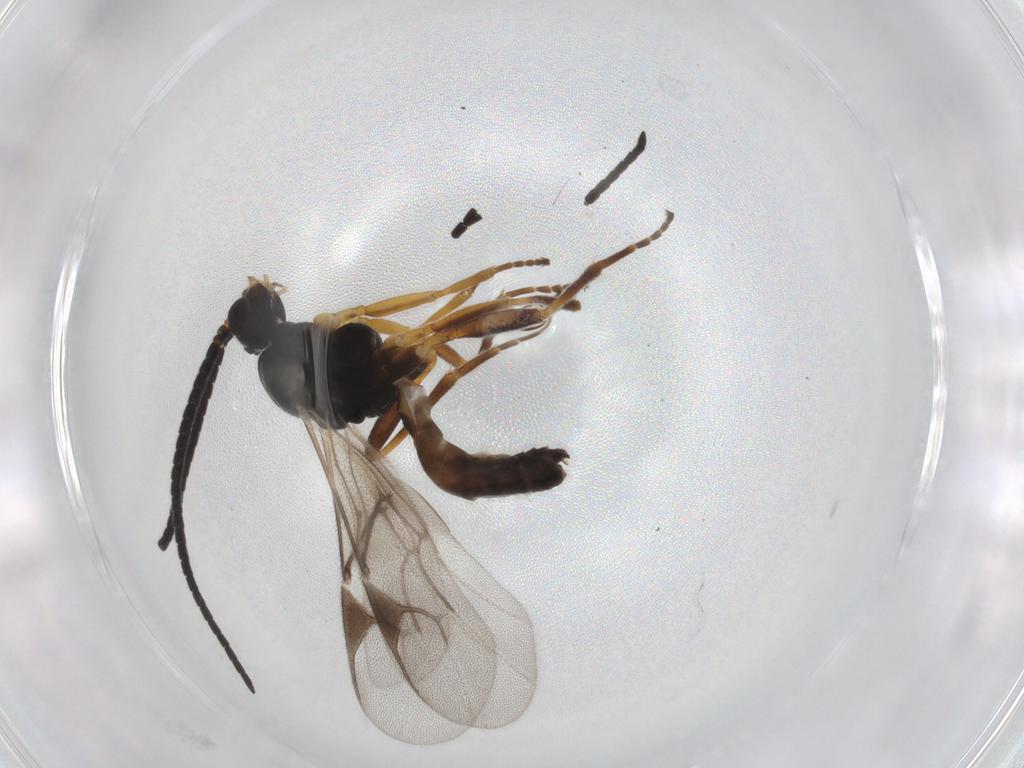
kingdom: Animalia
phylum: Arthropoda
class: Insecta
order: Hymenoptera
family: Braconidae
